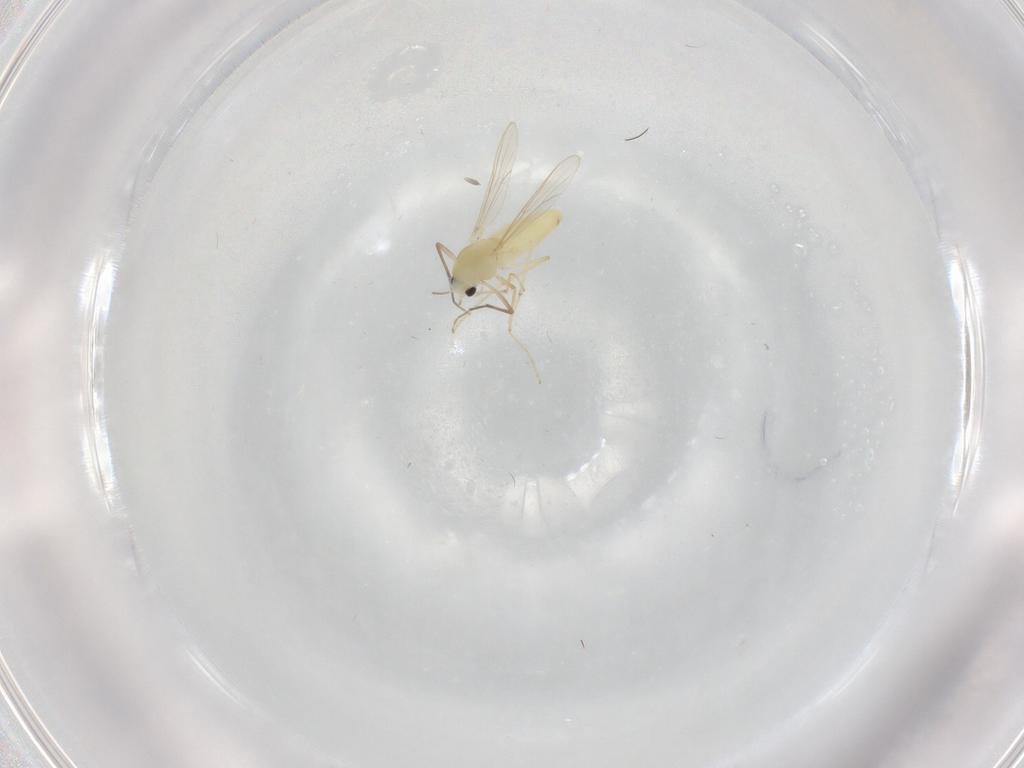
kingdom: Animalia
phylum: Arthropoda
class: Insecta
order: Diptera
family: Chironomidae
